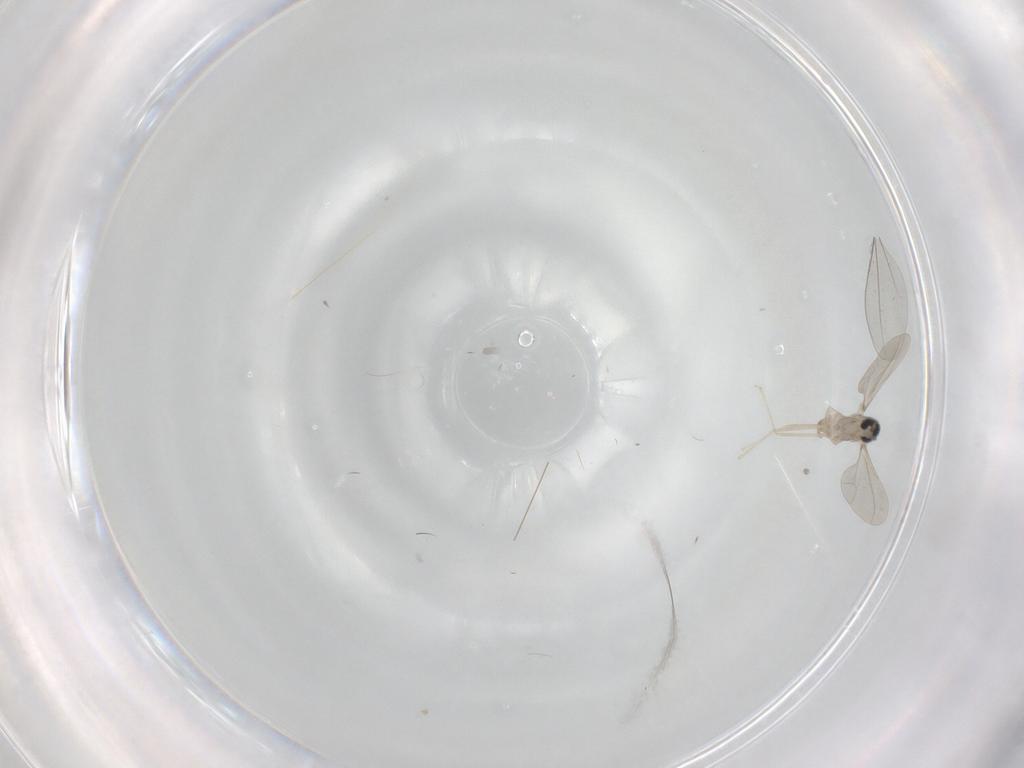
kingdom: Animalia
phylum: Arthropoda
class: Insecta
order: Diptera
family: Cecidomyiidae
